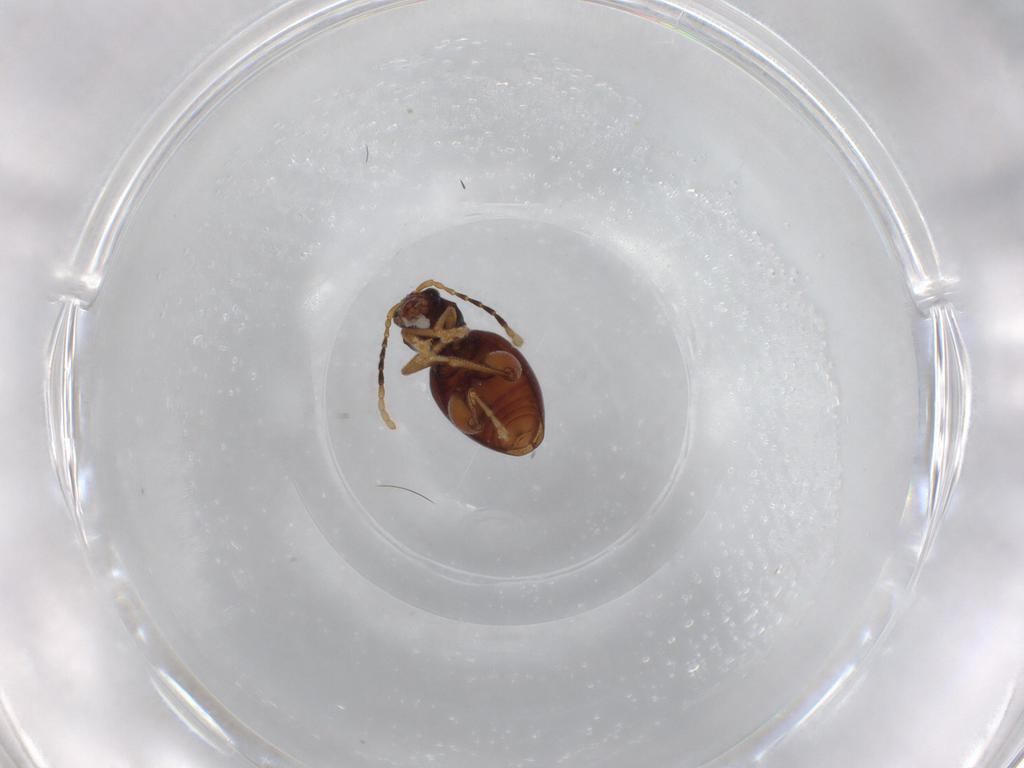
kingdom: Animalia
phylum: Arthropoda
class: Insecta
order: Coleoptera
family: Chrysomelidae
